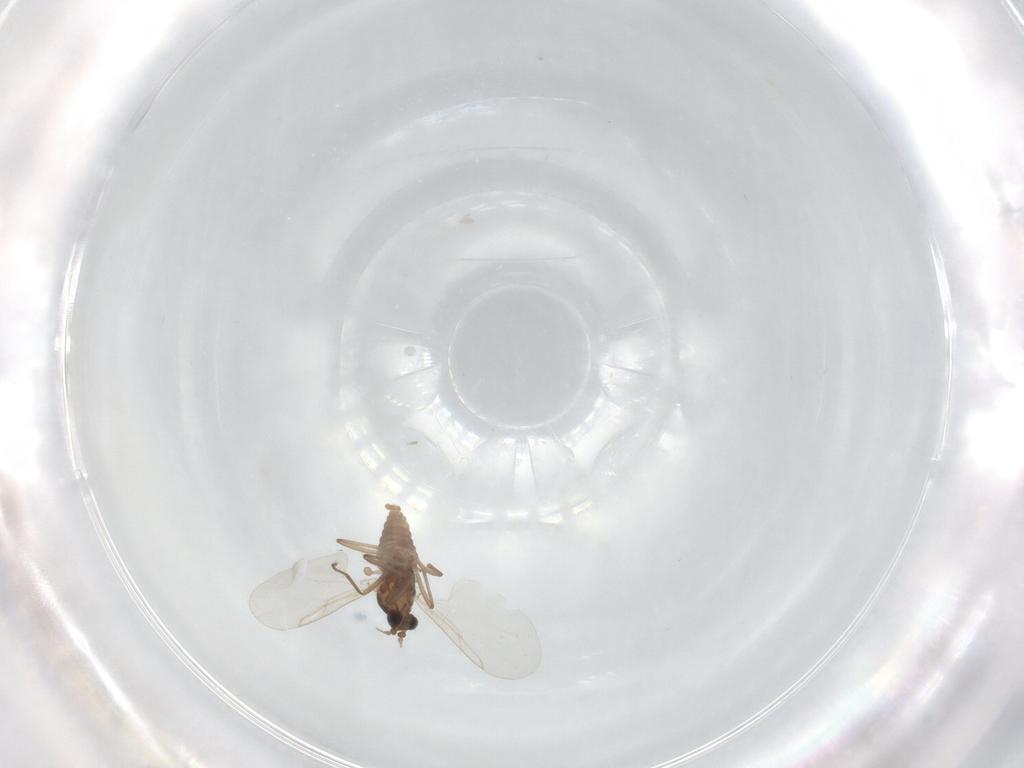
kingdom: Animalia
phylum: Arthropoda
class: Insecta
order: Diptera
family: Cecidomyiidae
